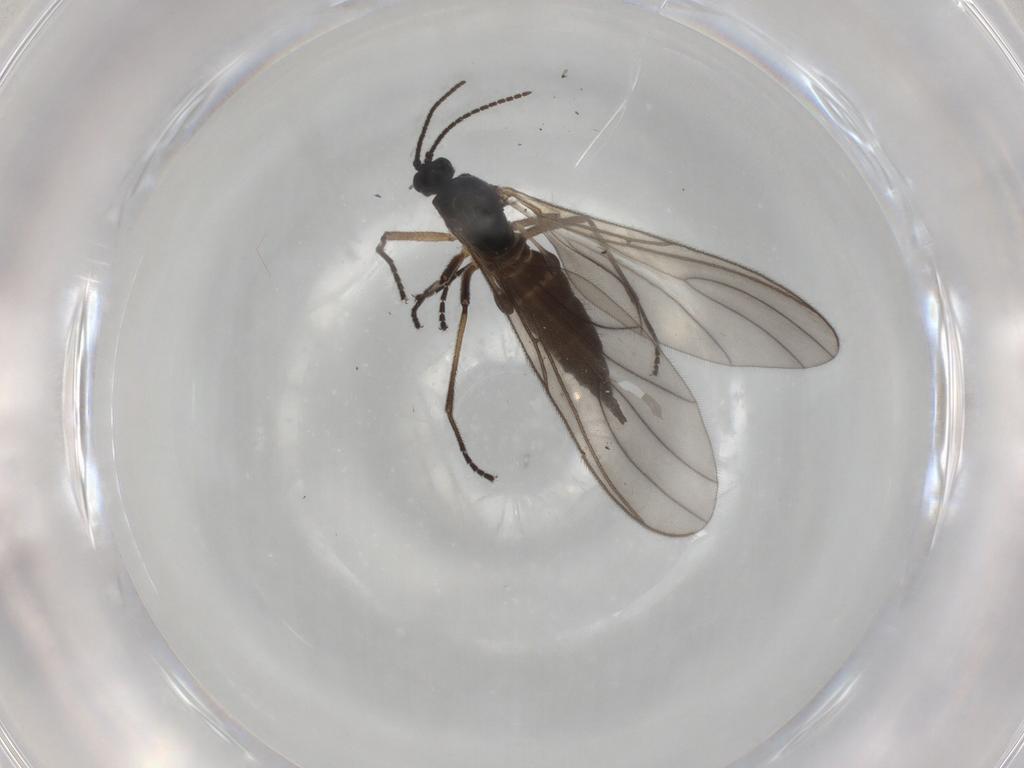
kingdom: Animalia
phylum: Arthropoda
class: Insecta
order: Diptera
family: Sciaridae
